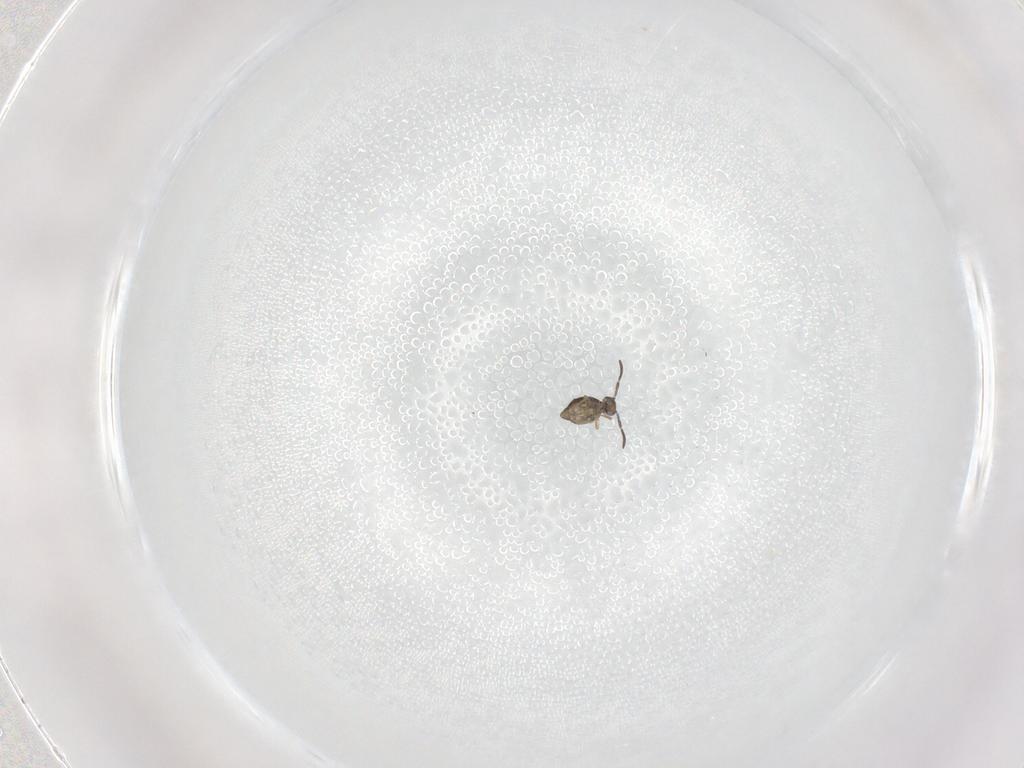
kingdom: Animalia
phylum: Arthropoda
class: Collembola
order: Symphypleona
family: Katiannidae
